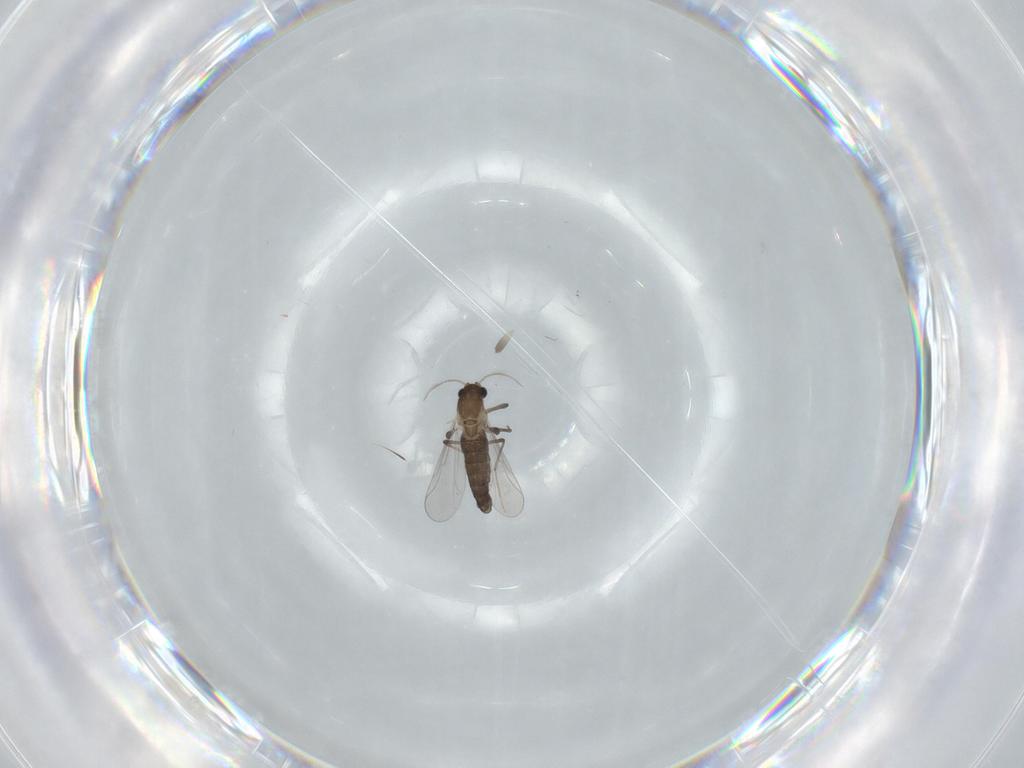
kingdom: Animalia
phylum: Arthropoda
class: Insecta
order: Diptera
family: Chironomidae
